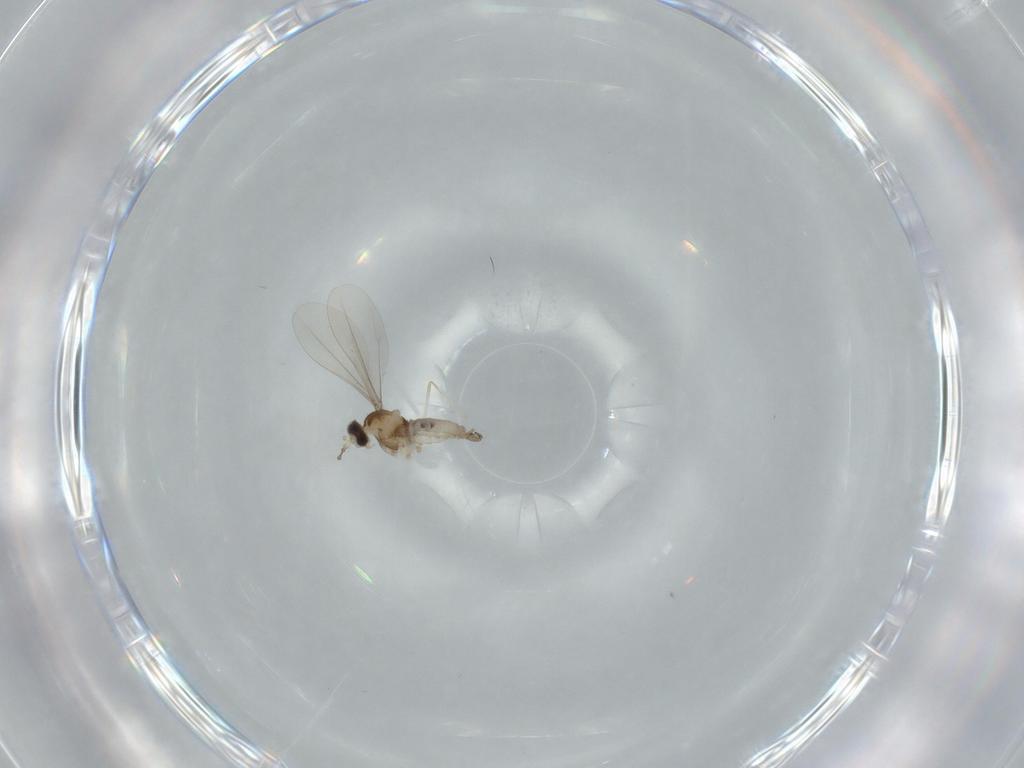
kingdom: Animalia
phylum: Arthropoda
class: Insecta
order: Diptera
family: Cecidomyiidae
